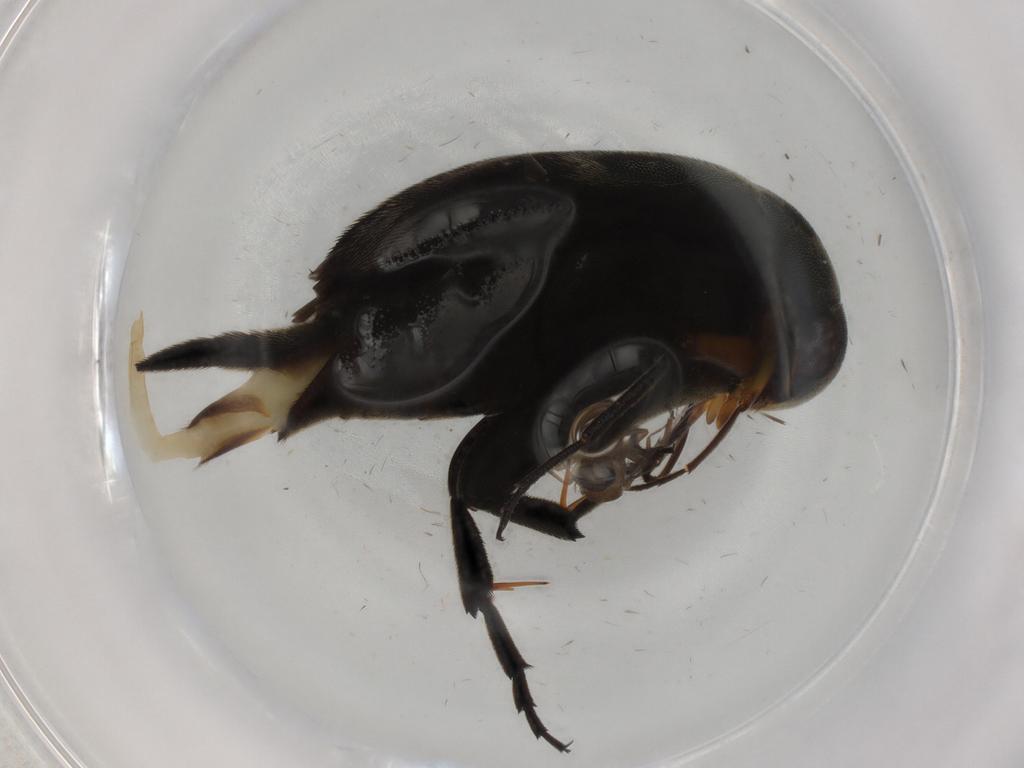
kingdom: Animalia
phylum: Arthropoda
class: Insecta
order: Coleoptera
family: Mordellidae
